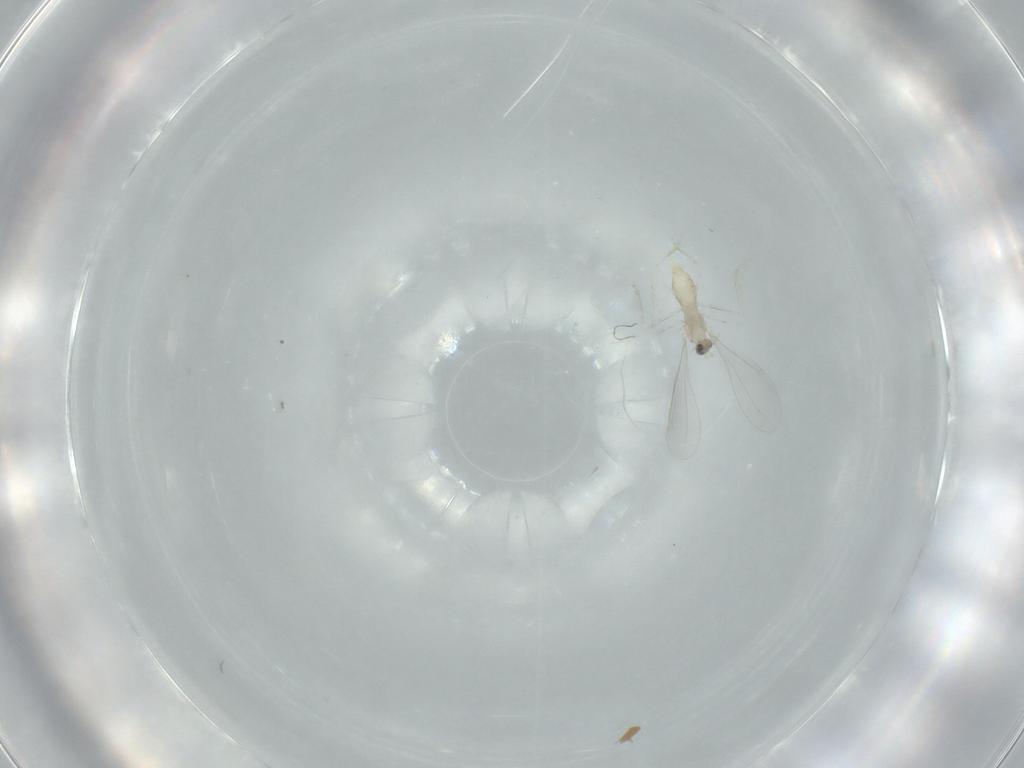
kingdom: Animalia
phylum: Arthropoda
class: Insecta
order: Diptera
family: Cecidomyiidae
